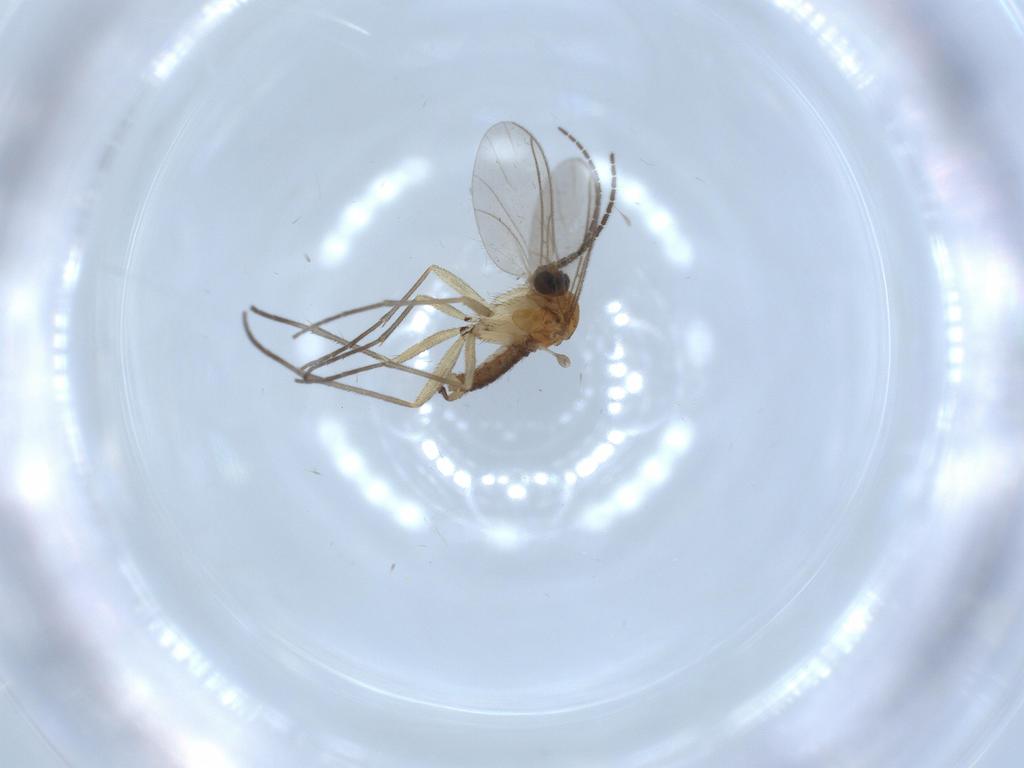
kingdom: Animalia
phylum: Arthropoda
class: Insecta
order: Diptera
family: Sciaridae
